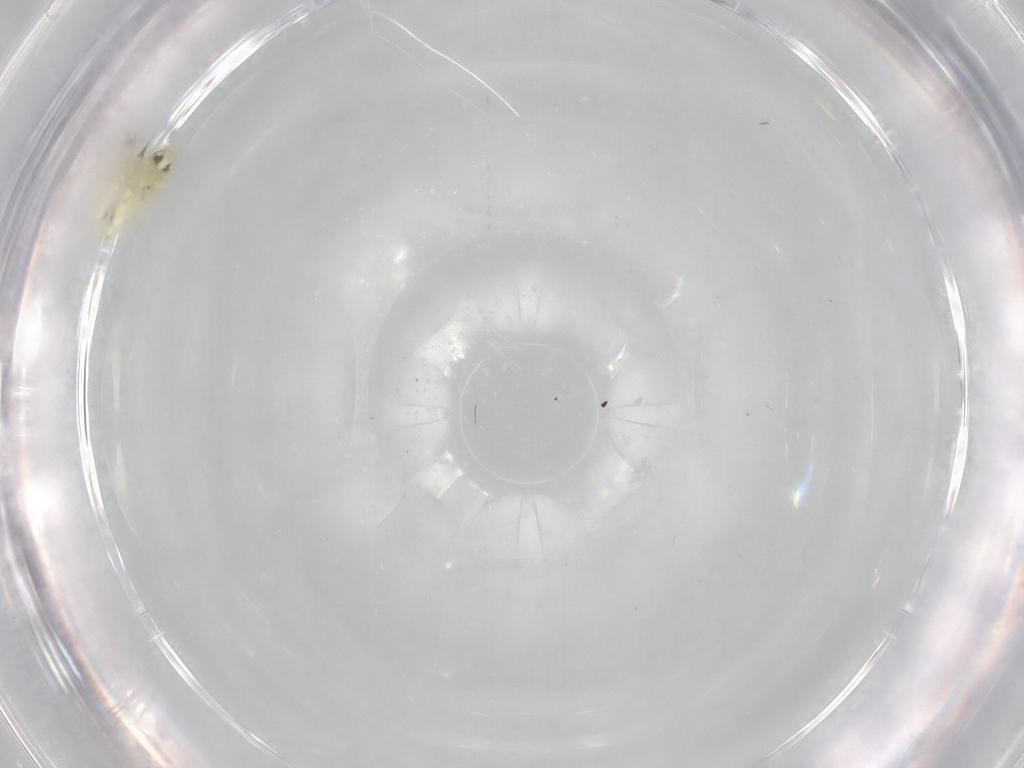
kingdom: Animalia
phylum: Arthropoda
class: Insecta
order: Hemiptera
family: Aleyrodidae
